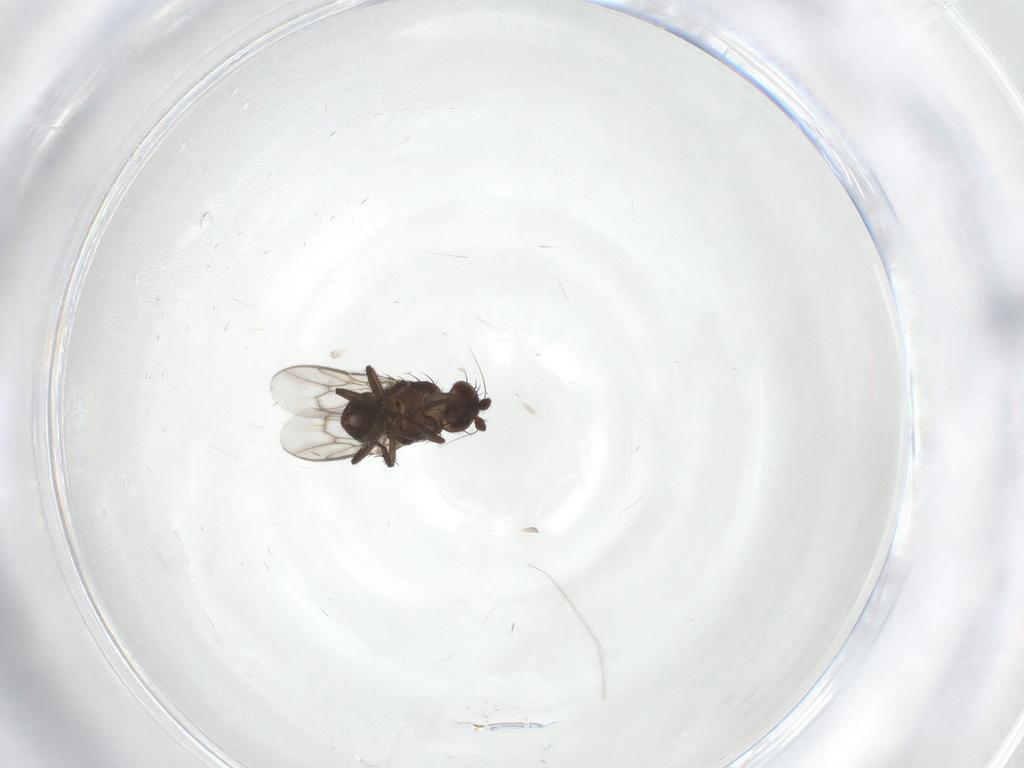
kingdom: Animalia
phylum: Arthropoda
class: Insecta
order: Diptera
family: Sphaeroceridae
